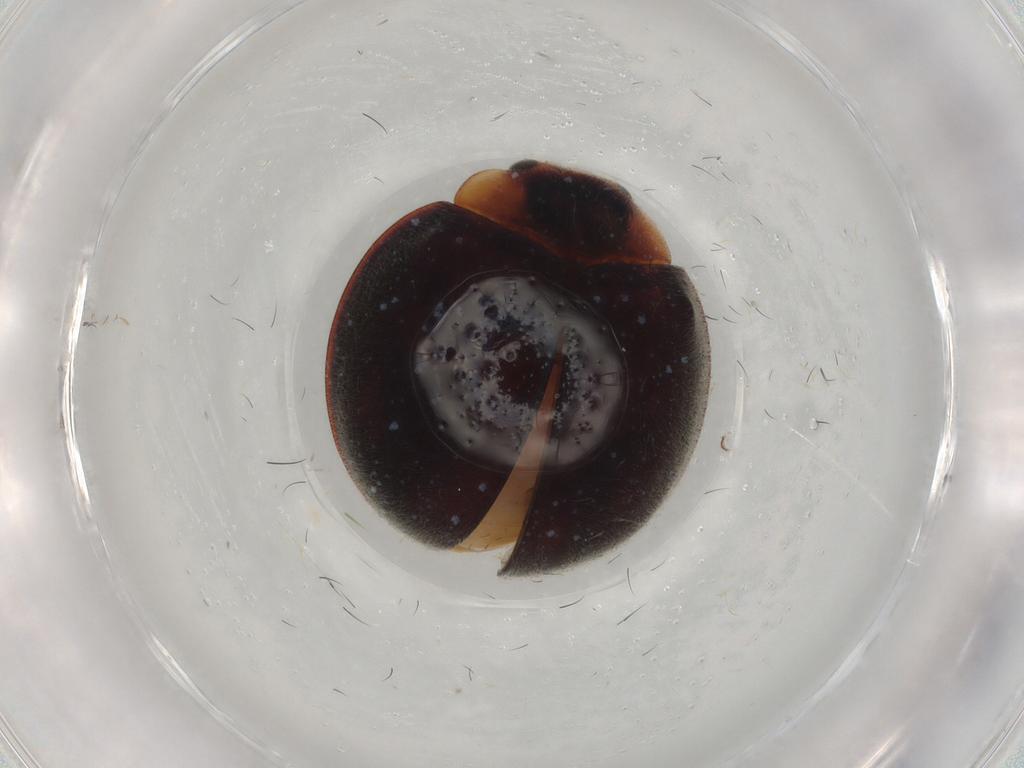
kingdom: Animalia
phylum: Arthropoda
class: Insecta
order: Coleoptera
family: Coccinellidae
